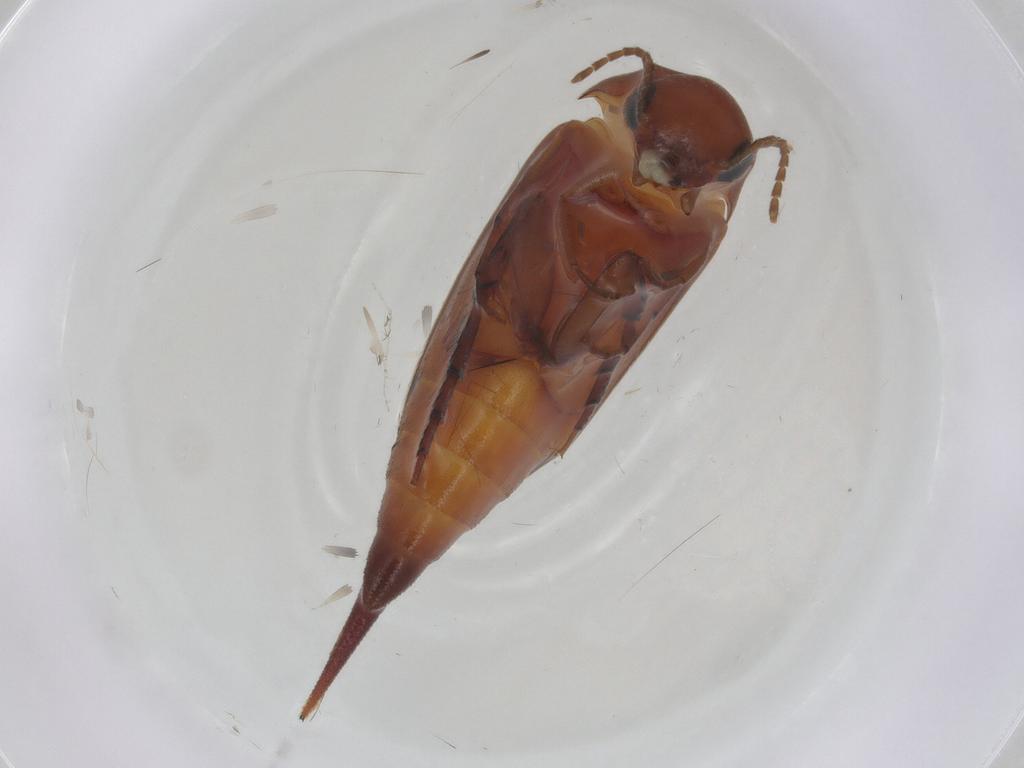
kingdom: Animalia
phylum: Arthropoda
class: Insecta
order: Coleoptera
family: Mordellidae
